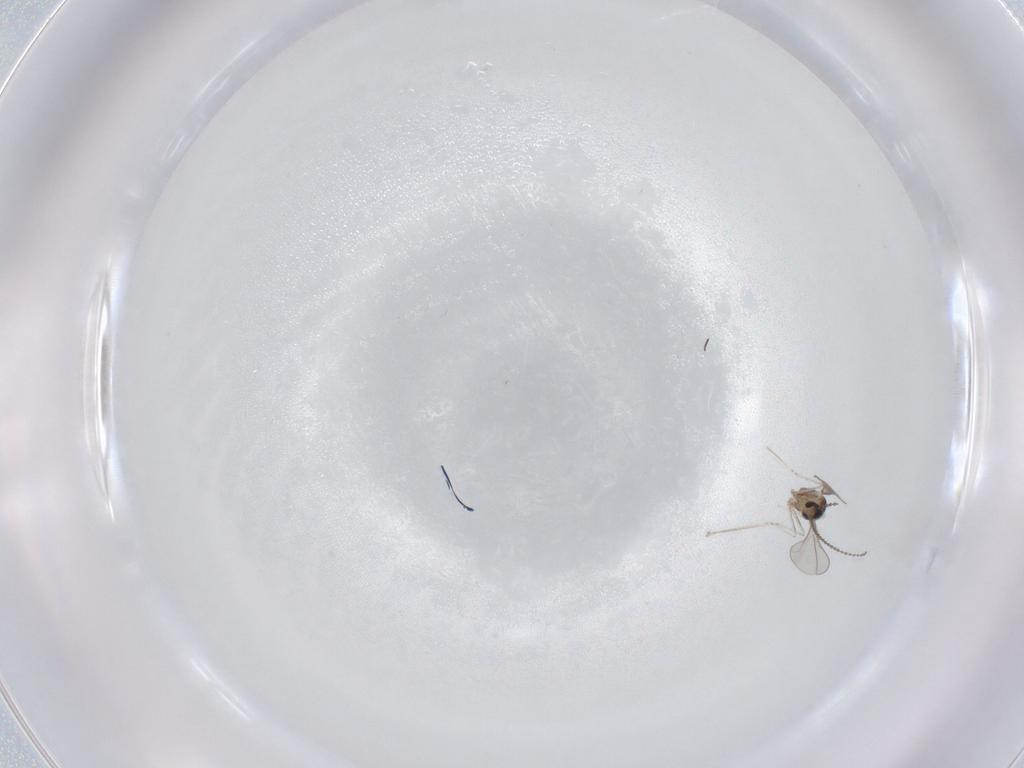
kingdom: Animalia
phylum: Arthropoda
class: Insecta
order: Diptera
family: Cecidomyiidae
